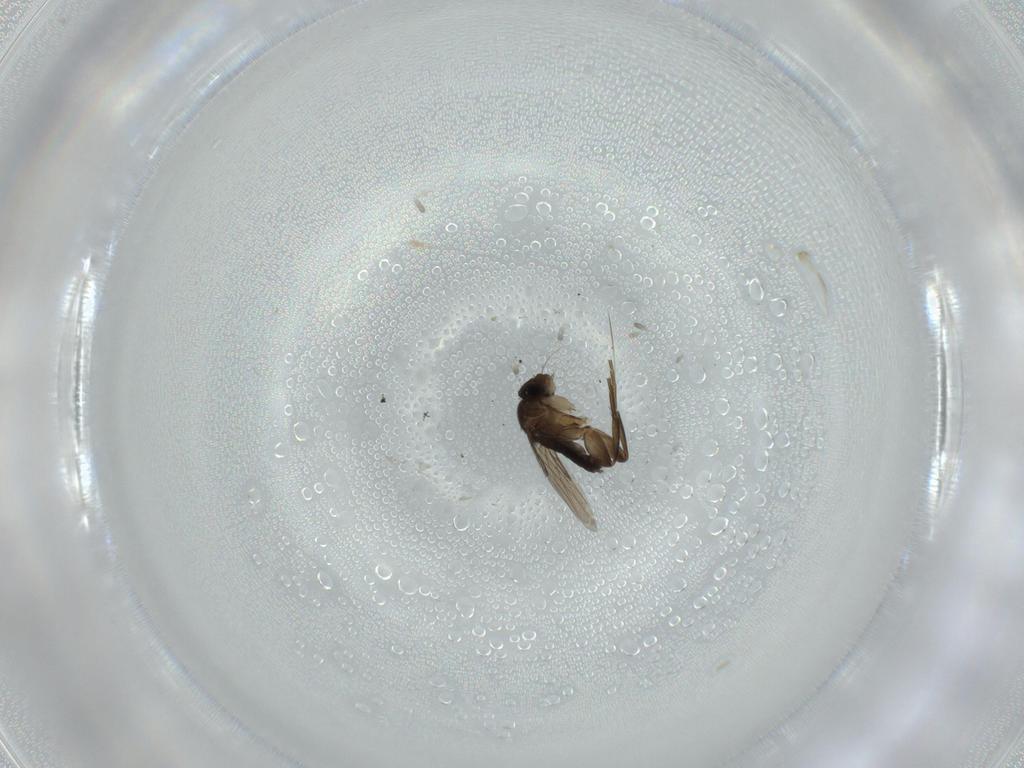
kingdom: Animalia
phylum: Arthropoda
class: Insecta
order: Diptera
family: Phoridae
